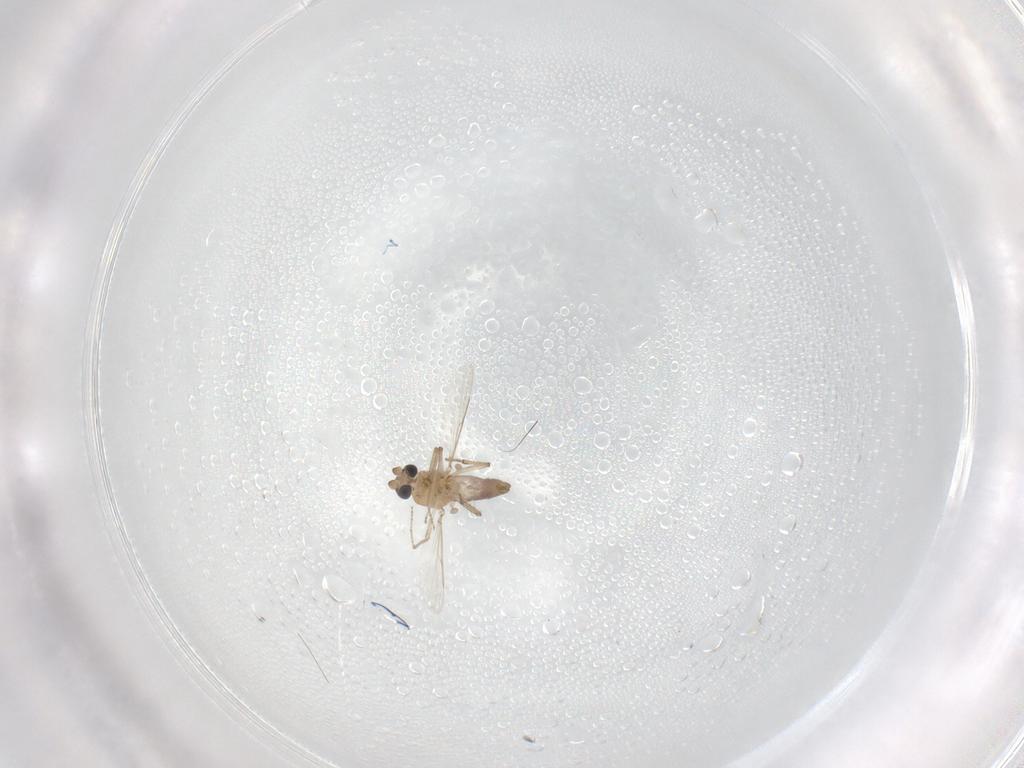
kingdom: Animalia
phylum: Arthropoda
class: Insecta
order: Diptera
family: Ceratopogonidae
